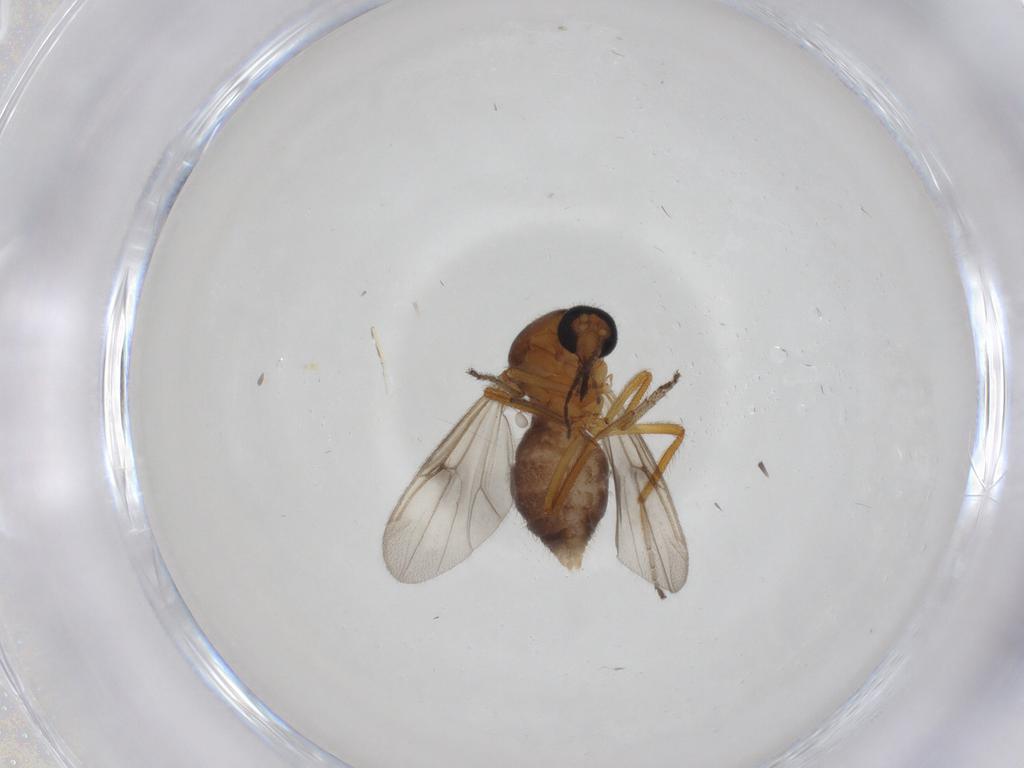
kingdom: Animalia
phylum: Arthropoda
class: Insecta
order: Diptera
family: Ceratopogonidae
